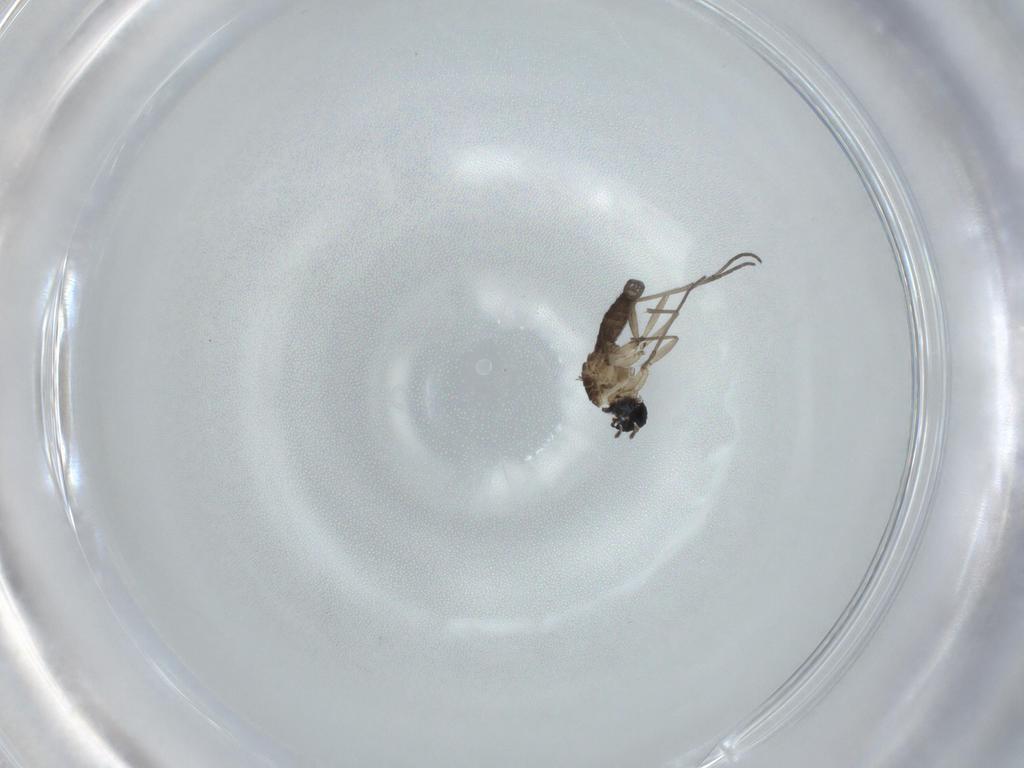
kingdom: Animalia
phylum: Arthropoda
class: Insecta
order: Diptera
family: Sciaridae
